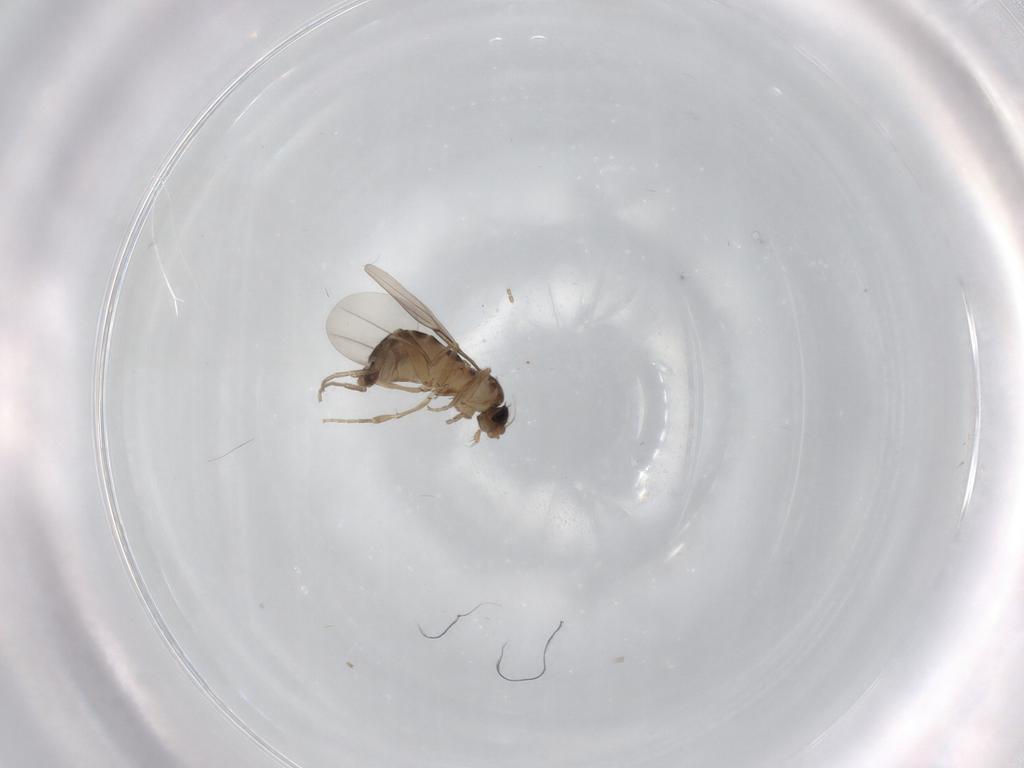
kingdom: Animalia
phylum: Arthropoda
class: Insecta
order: Diptera
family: Phoridae
